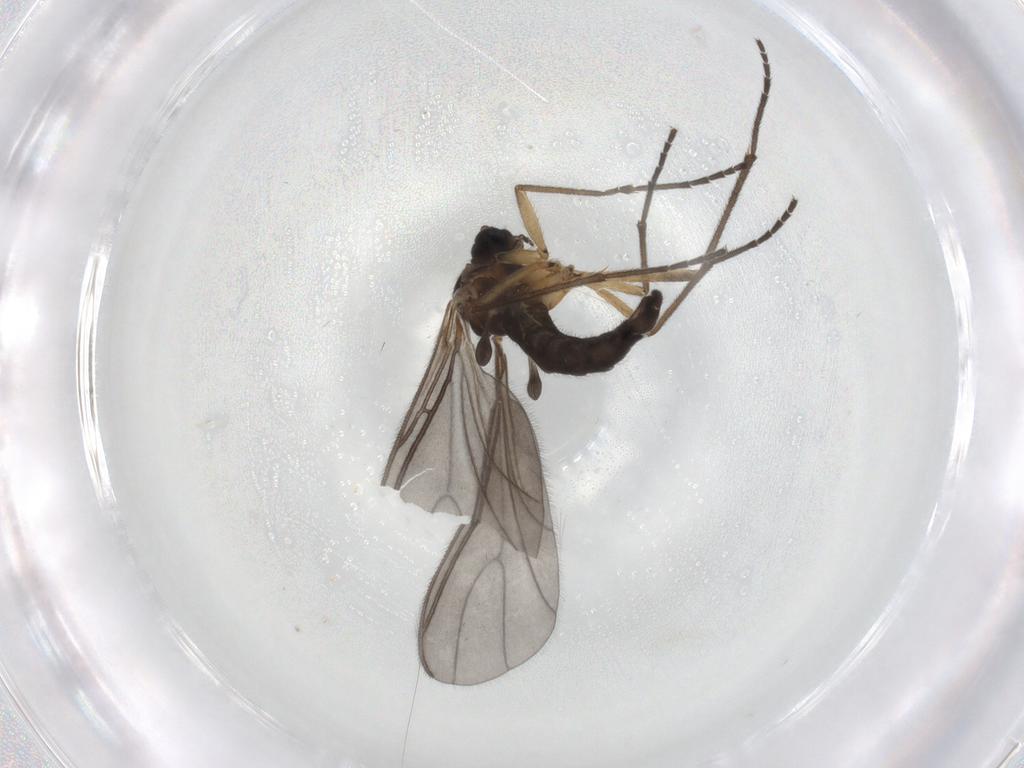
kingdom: Animalia
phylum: Arthropoda
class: Insecta
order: Diptera
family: Sciaridae
